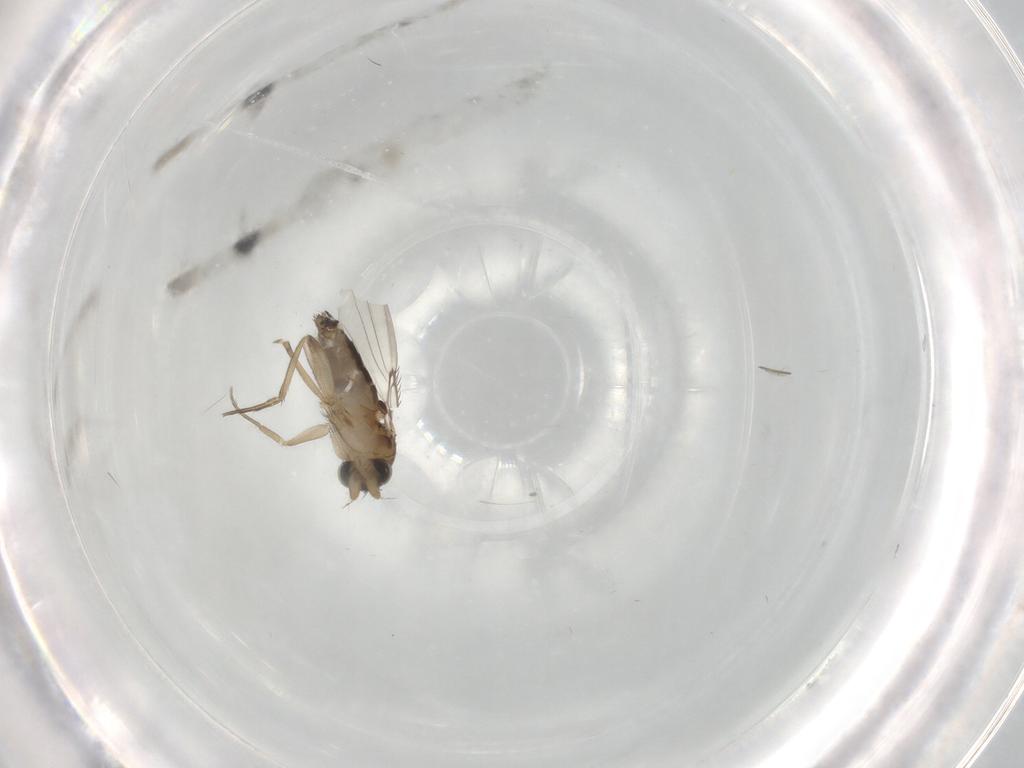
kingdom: Animalia
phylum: Arthropoda
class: Insecta
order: Diptera
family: Cecidomyiidae
